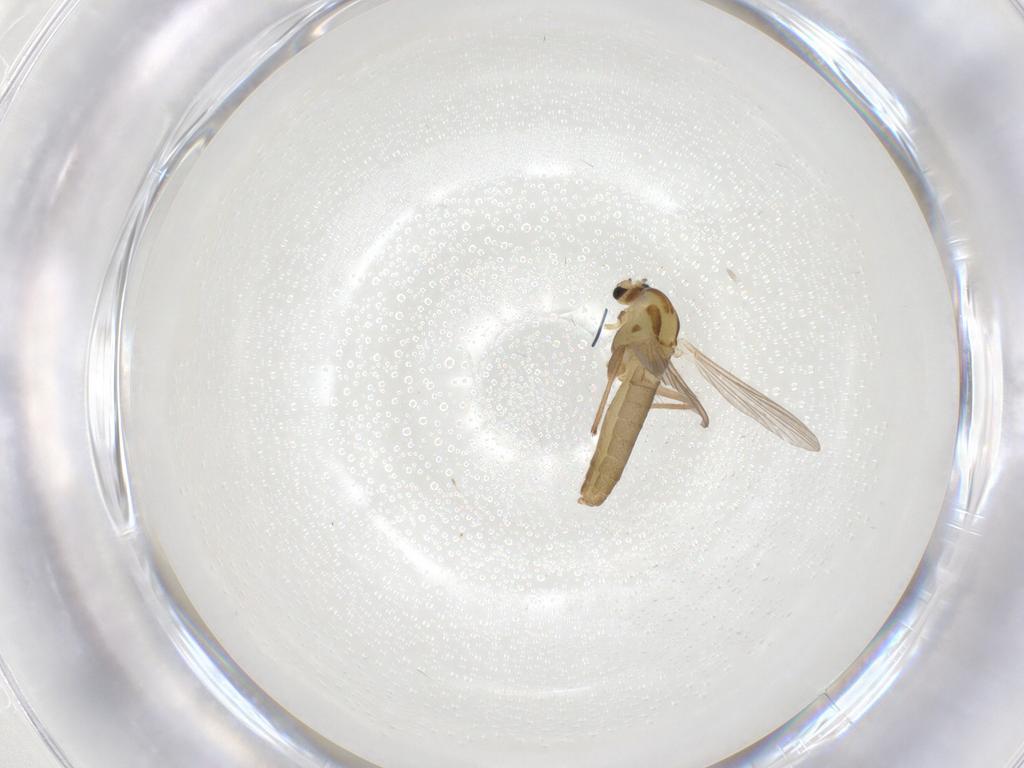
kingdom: Animalia
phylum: Arthropoda
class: Insecta
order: Diptera
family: Chironomidae
